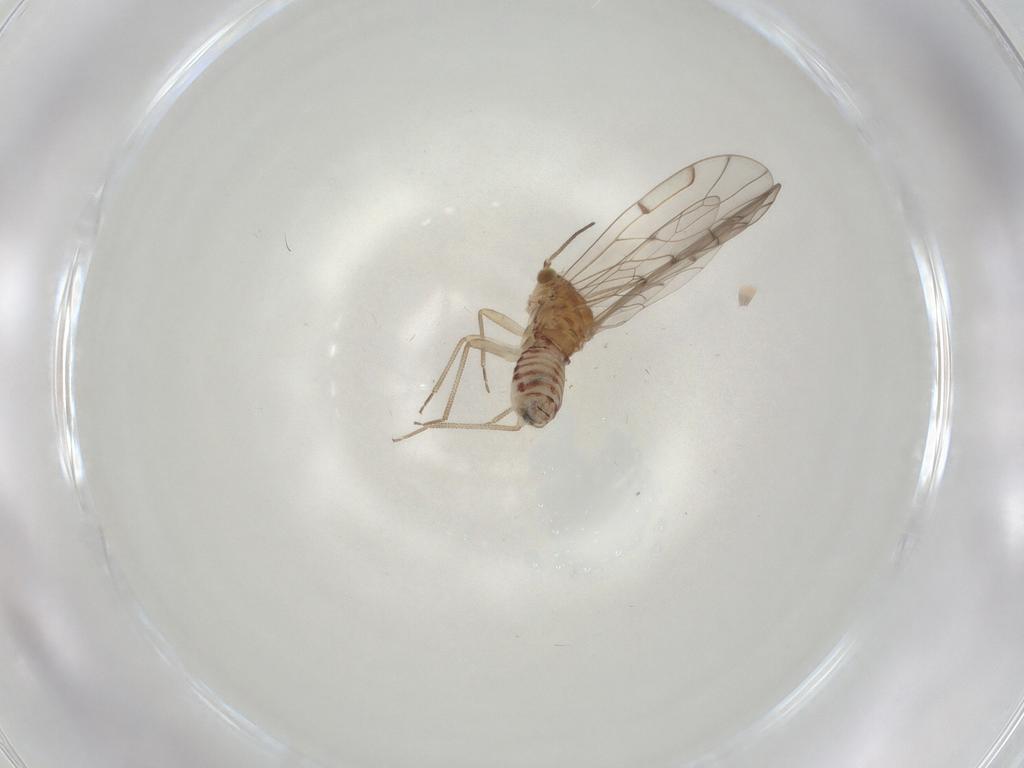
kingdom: Animalia
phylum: Arthropoda
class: Insecta
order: Psocodea
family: Ectopsocidae
